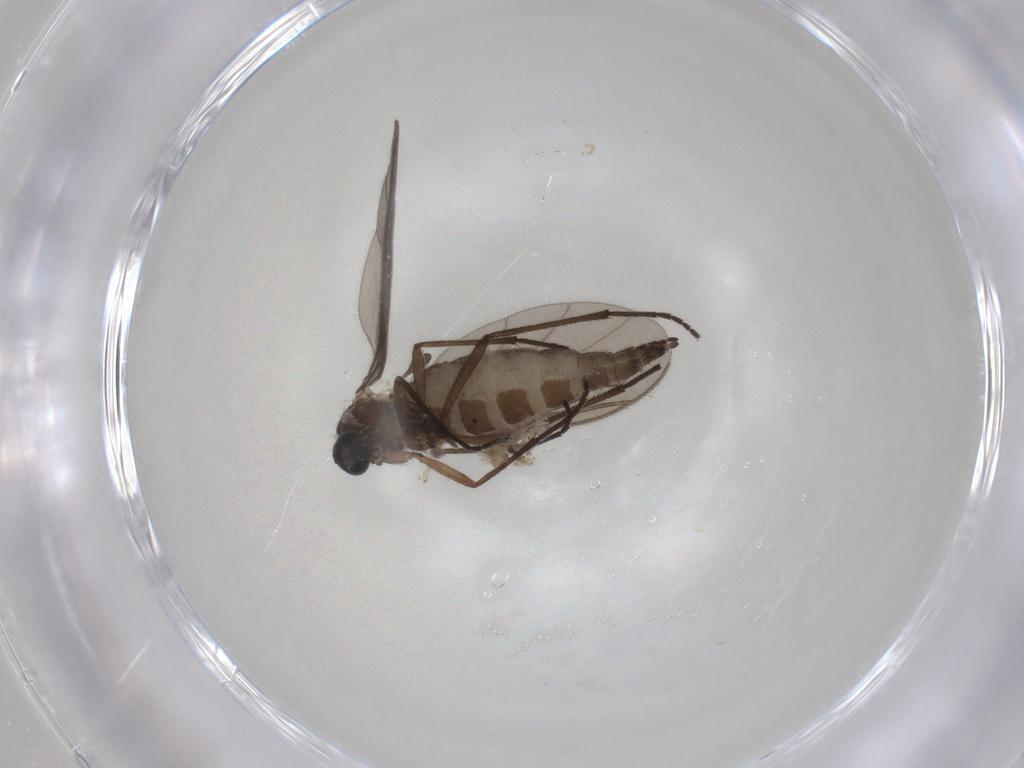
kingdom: Animalia
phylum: Arthropoda
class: Insecta
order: Diptera
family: Sciaridae
